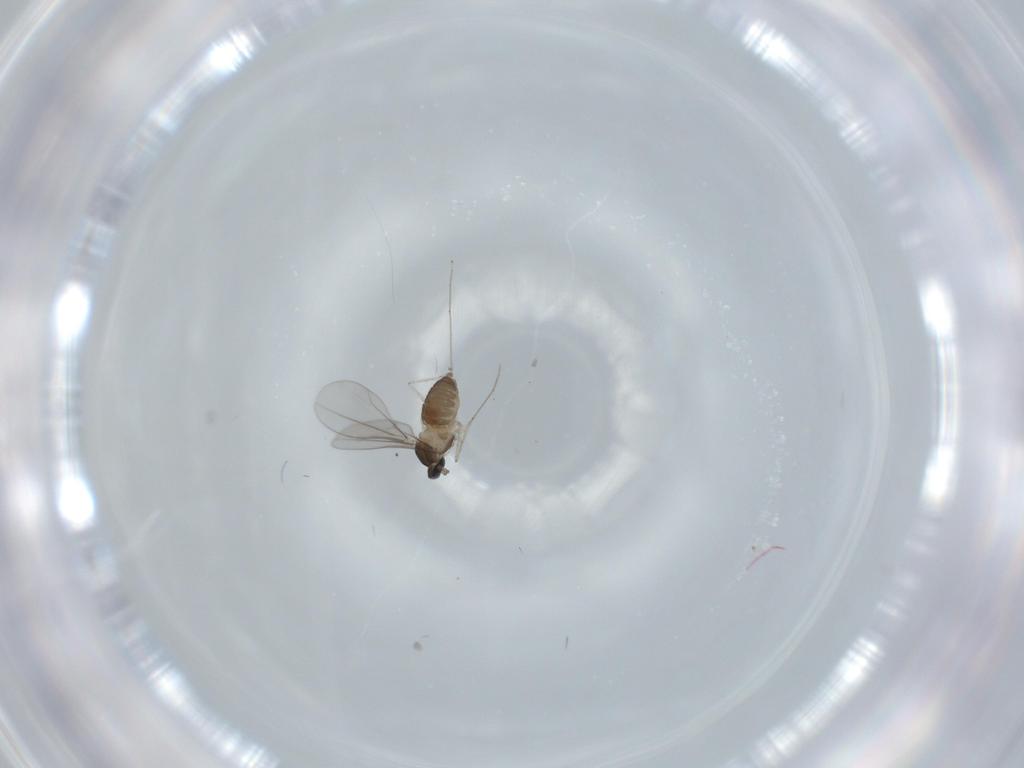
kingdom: Animalia
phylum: Arthropoda
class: Insecta
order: Diptera
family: Cecidomyiidae
